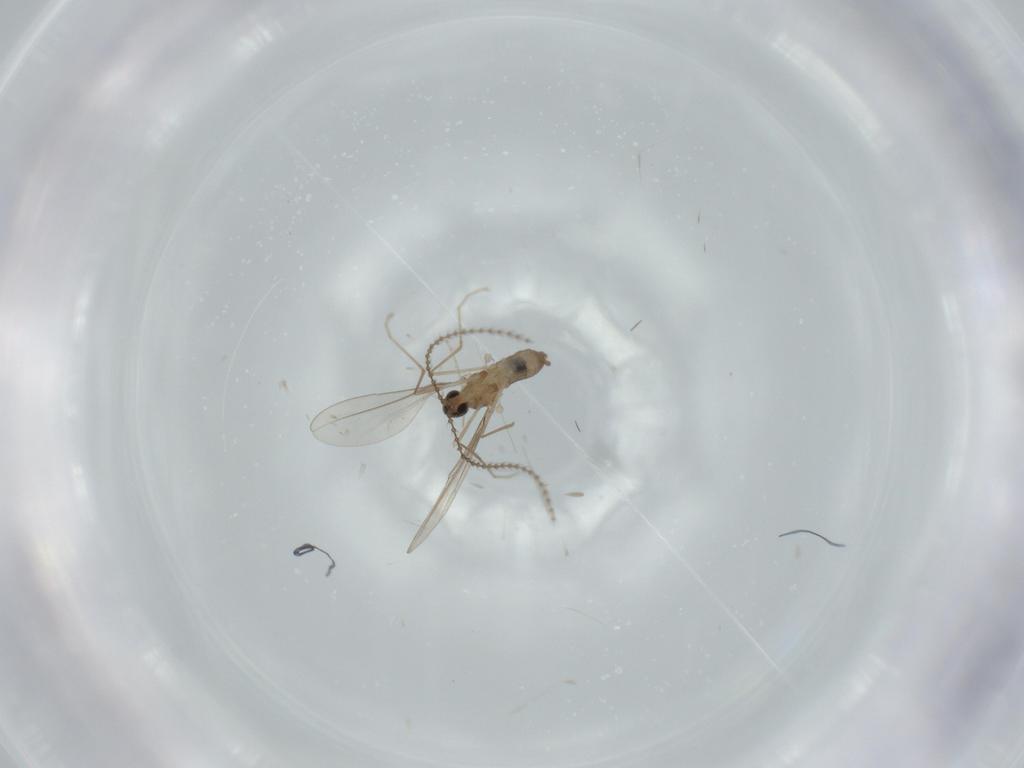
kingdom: Animalia
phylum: Arthropoda
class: Insecta
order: Diptera
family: Cecidomyiidae
